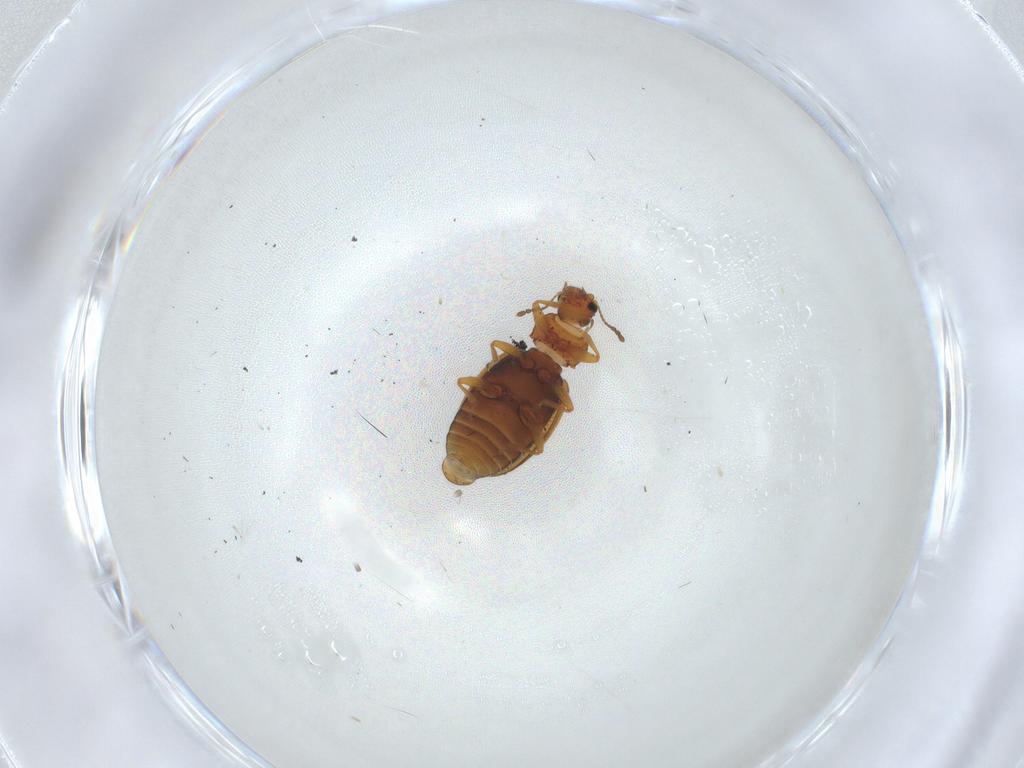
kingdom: Animalia
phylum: Arthropoda
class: Insecta
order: Coleoptera
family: Latridiidae
